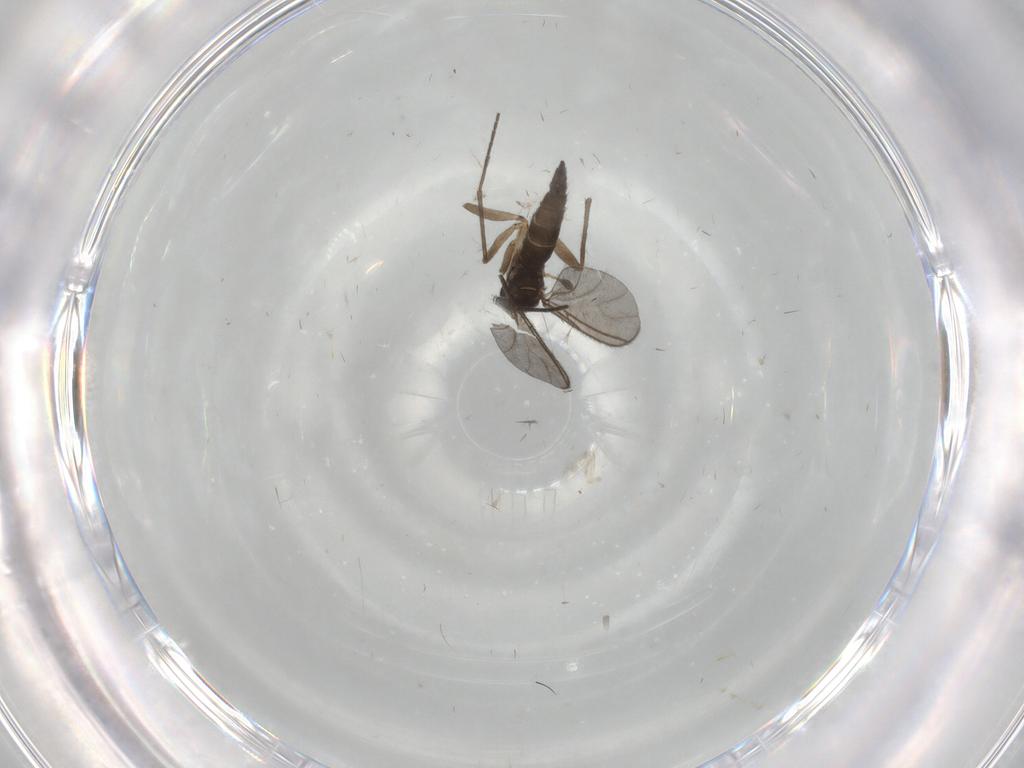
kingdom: Animalia
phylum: Arthropoda
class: Insecta
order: Diptera
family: Sciaridae
